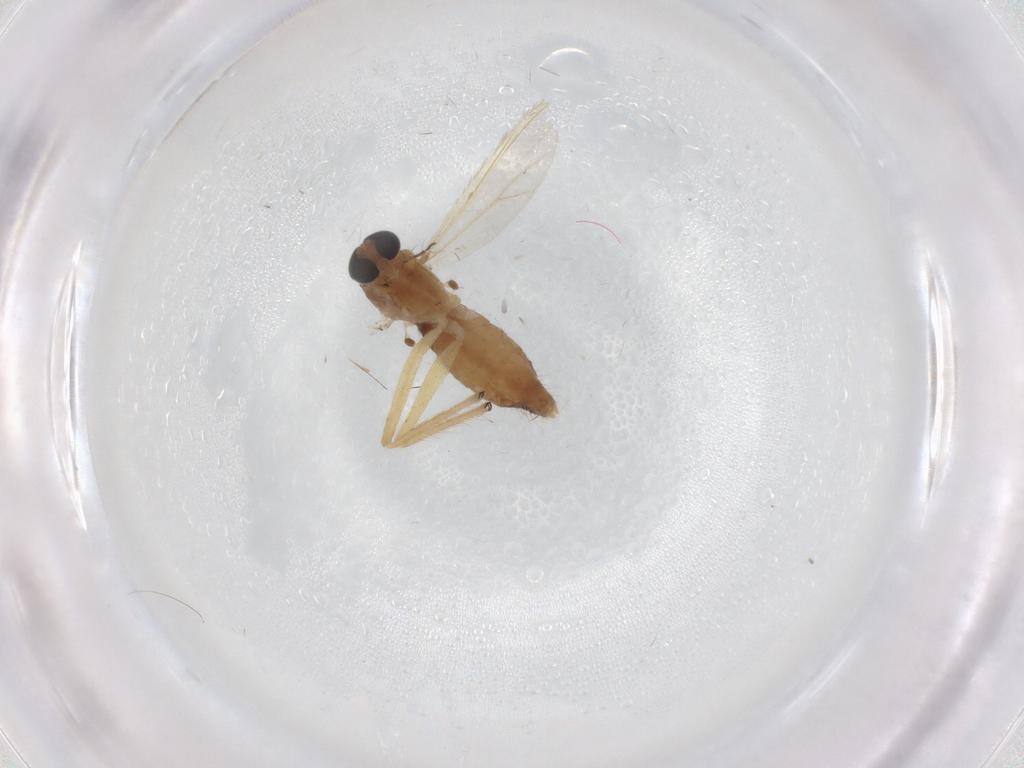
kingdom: Animalia
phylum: Arthropoda
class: Insecta
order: Diptera
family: Chironomidae
